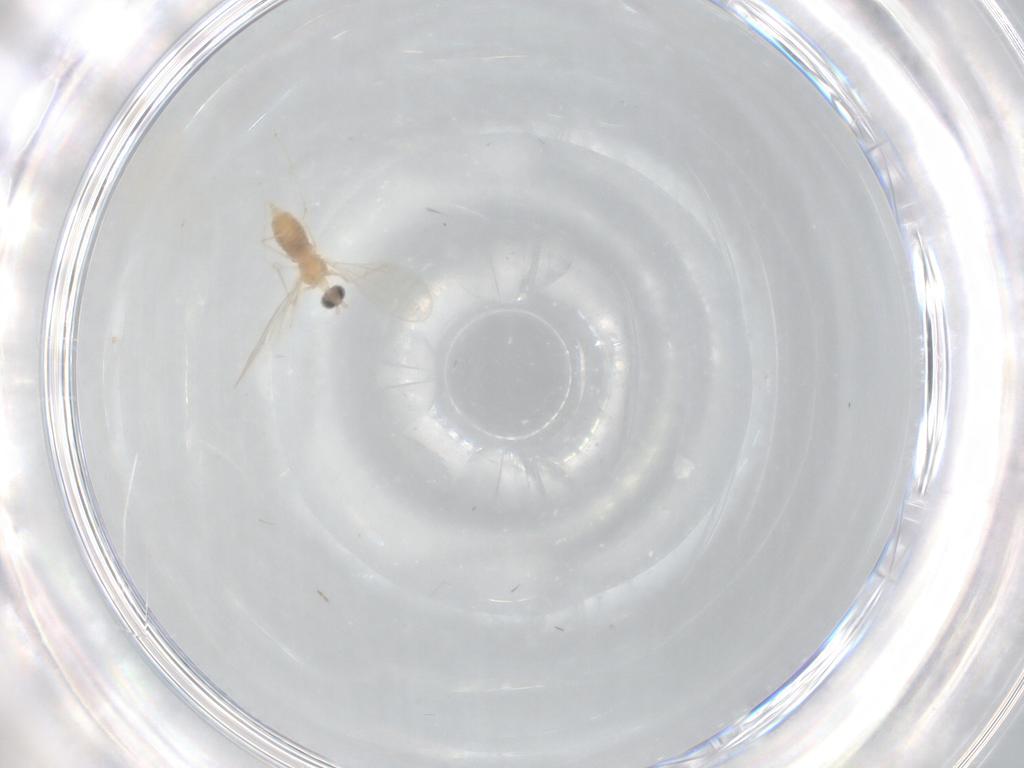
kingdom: Animalia
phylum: Arthropoda
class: Insecta
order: Diptera
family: Cecidomyiidae
